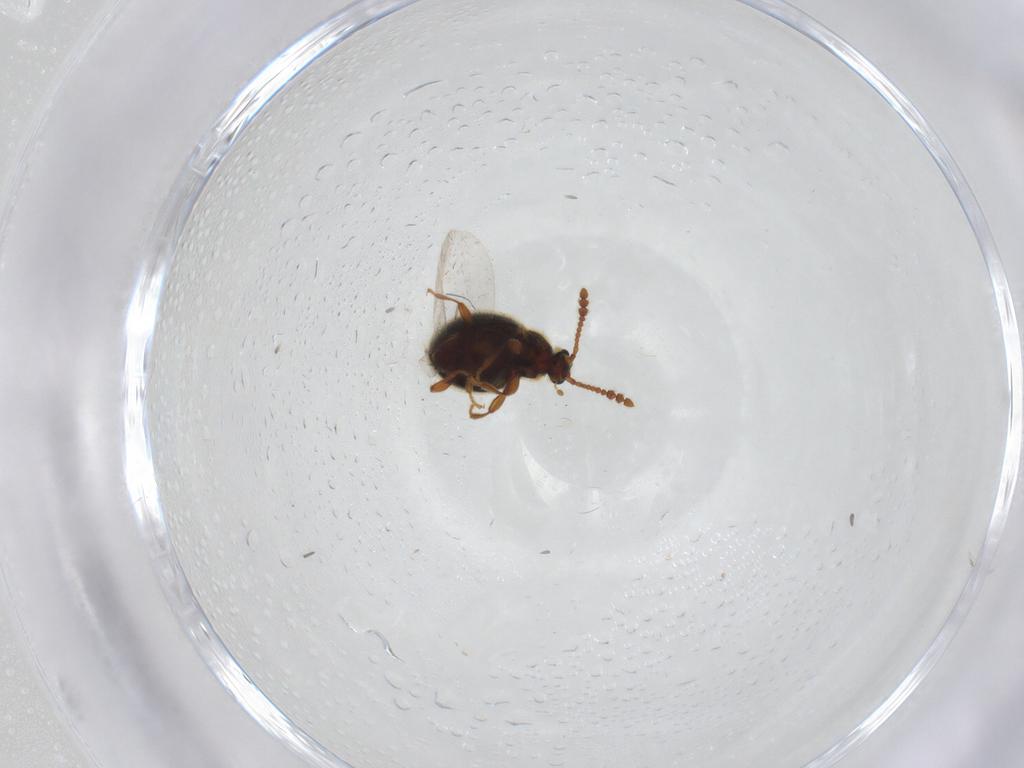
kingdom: Animalia
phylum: Arthropoda
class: Insecta
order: Coleoptera
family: Staphylinidae
